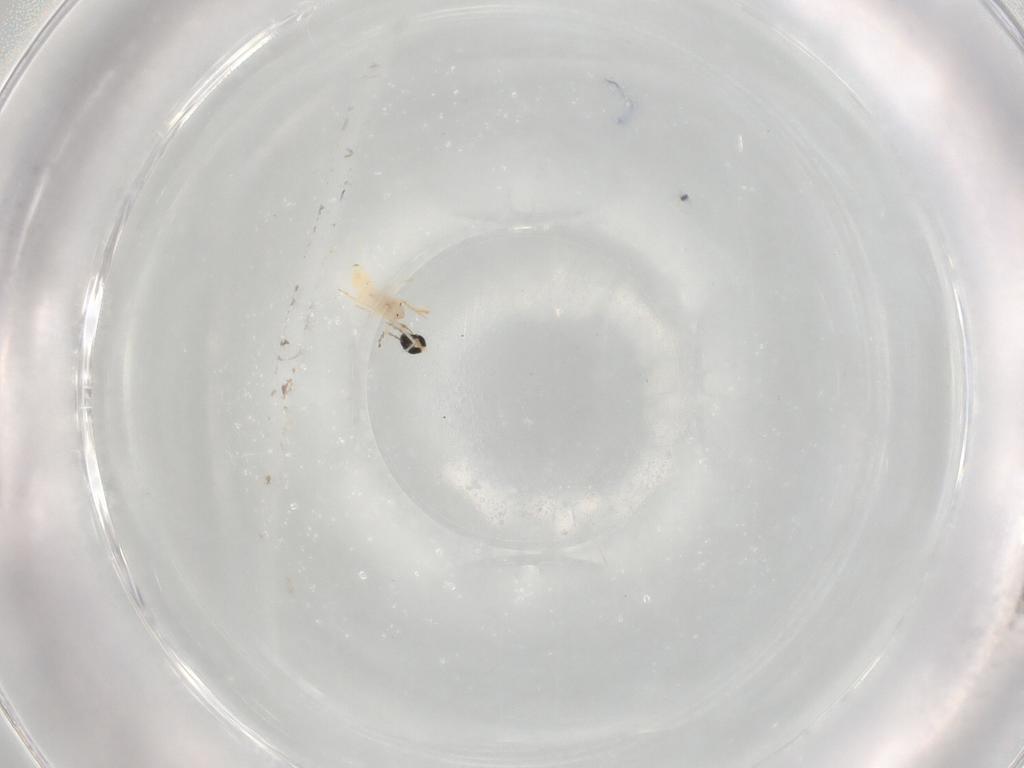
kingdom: Animalia
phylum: Arthropoda
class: Insecta
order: Diptera
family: Cecidomyiidae
